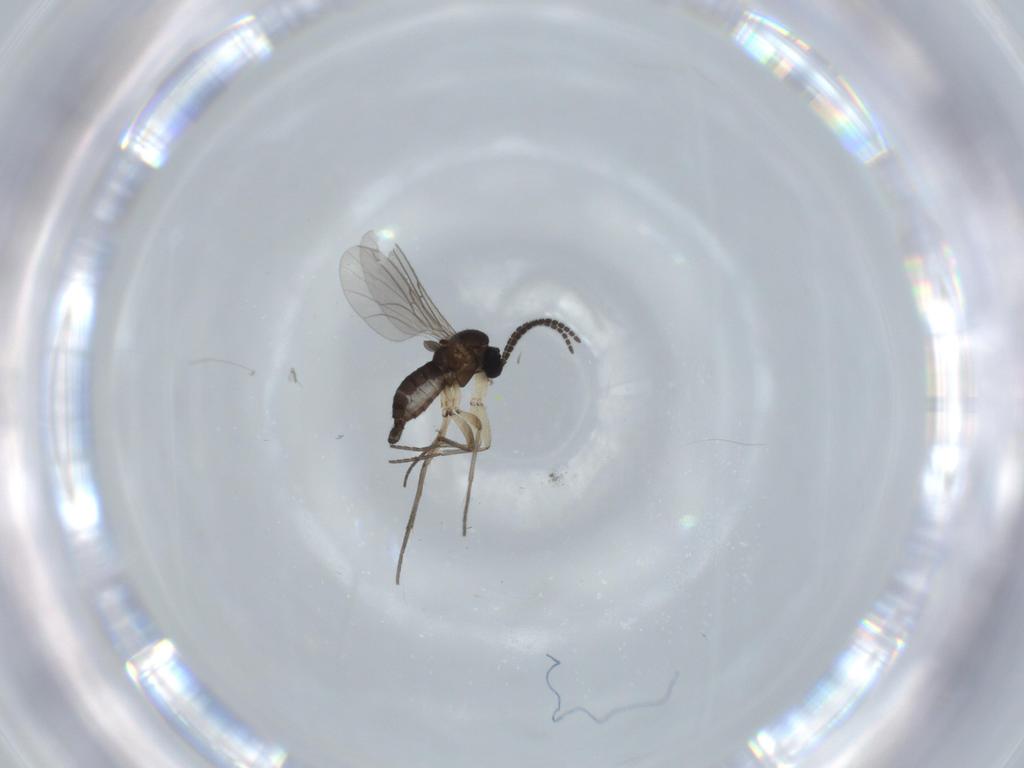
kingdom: Animalia
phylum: Arthropoda
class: Insecta
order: Diptera
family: Sciaridae
